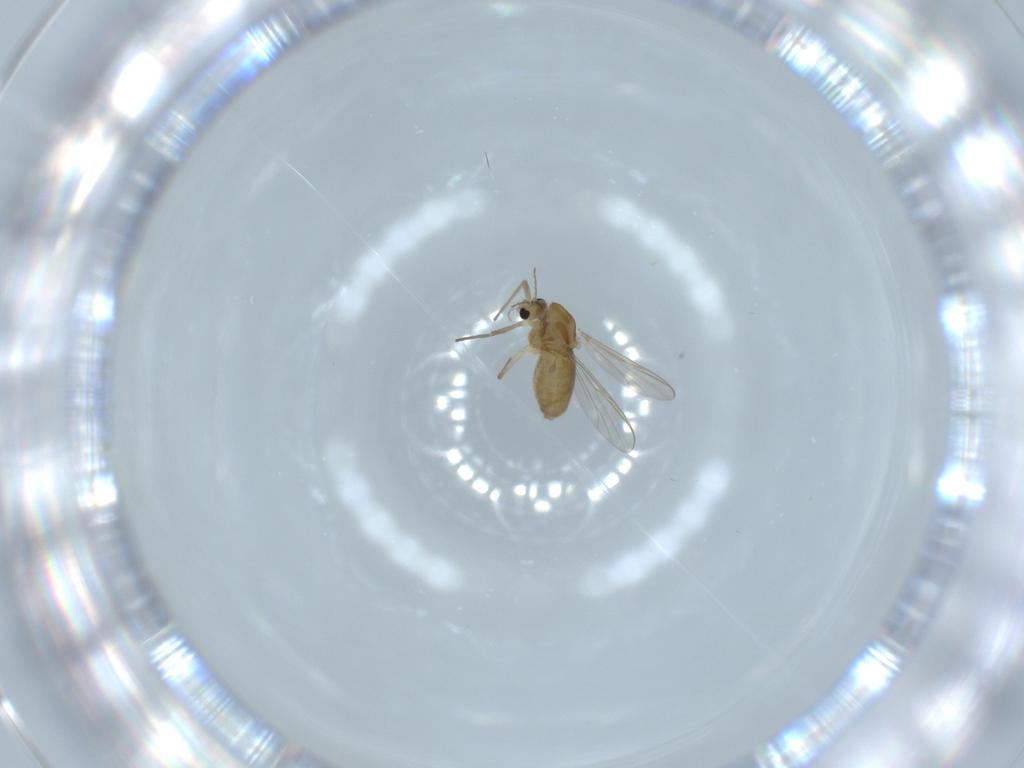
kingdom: Animalia
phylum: Arthropoda
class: Insecta
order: Diptera
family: Chironomidae
